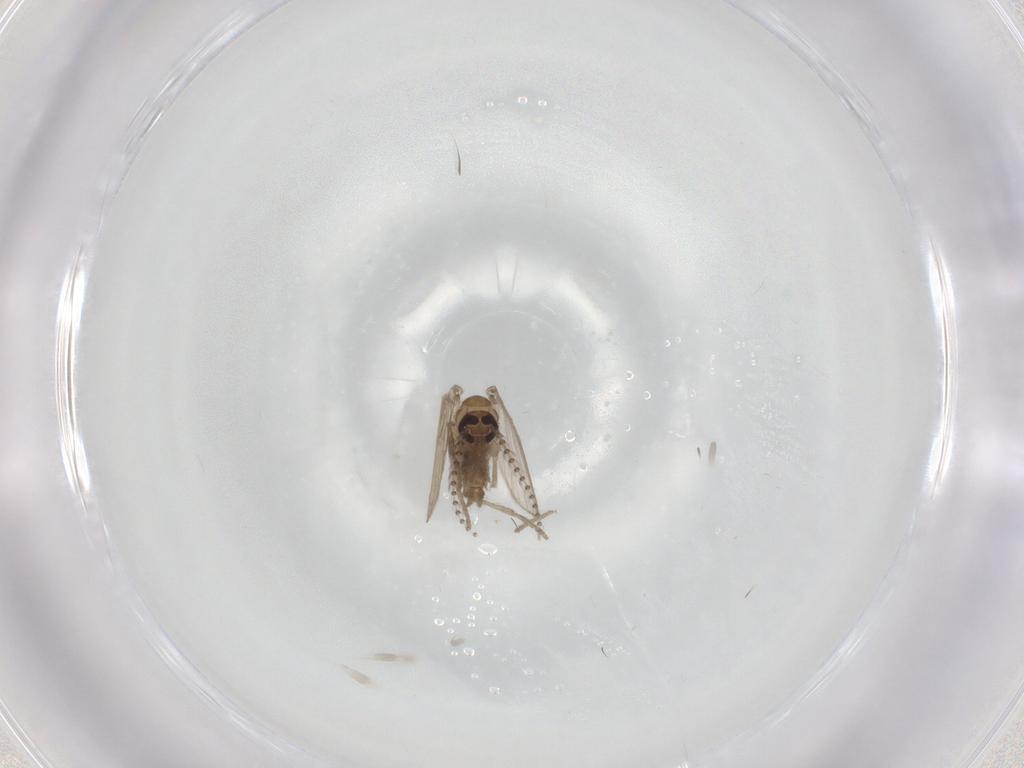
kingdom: Animalia
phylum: Arthropoda
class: Insecta
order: Diptera
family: Psychodidae
